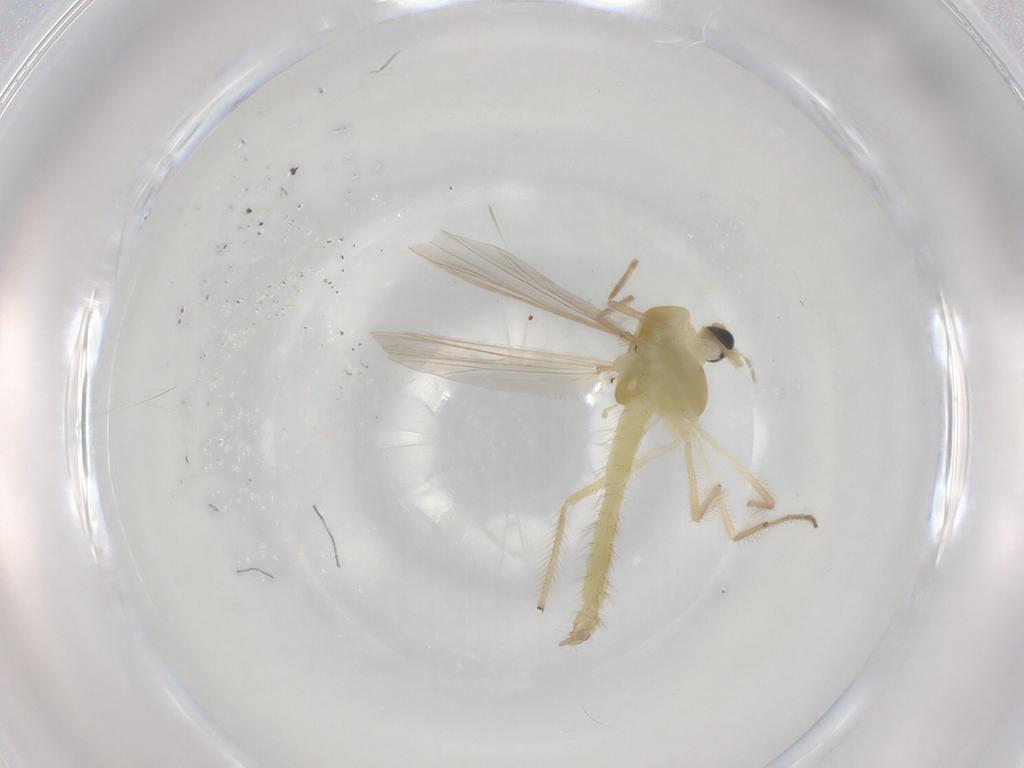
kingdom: Animalia
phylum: Arthropoda
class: Insecta
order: Diptera
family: Chironomidae
